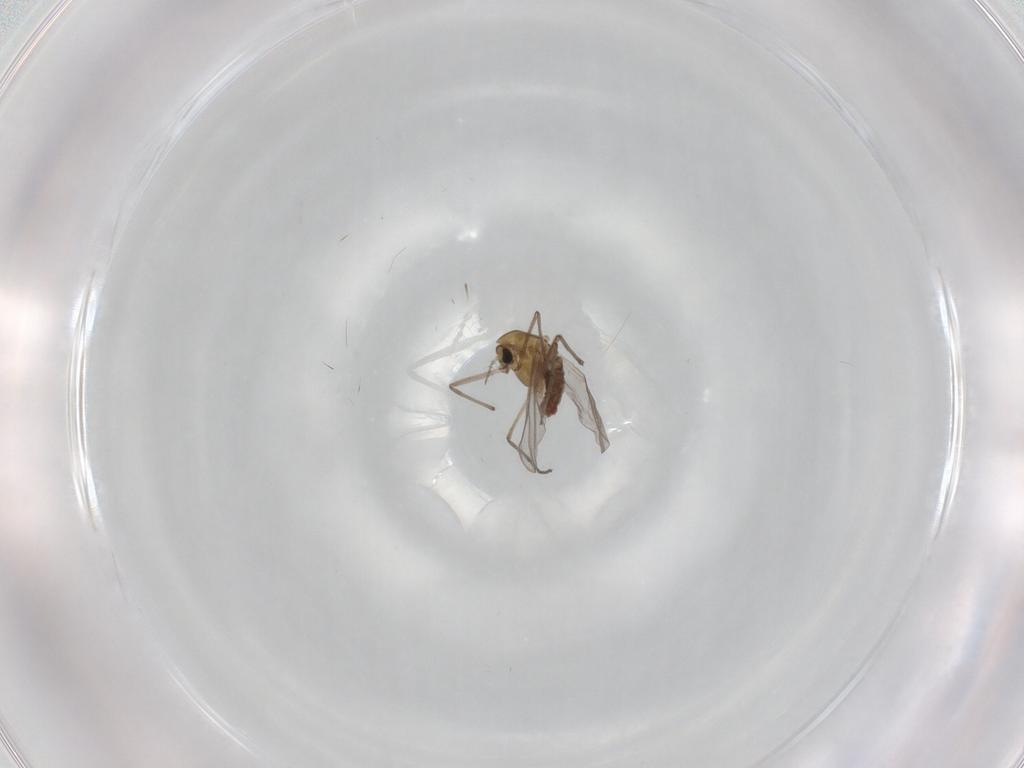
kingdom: Animalia
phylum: Arthropoda
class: Insecta
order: Diptera
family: Chironomidae
